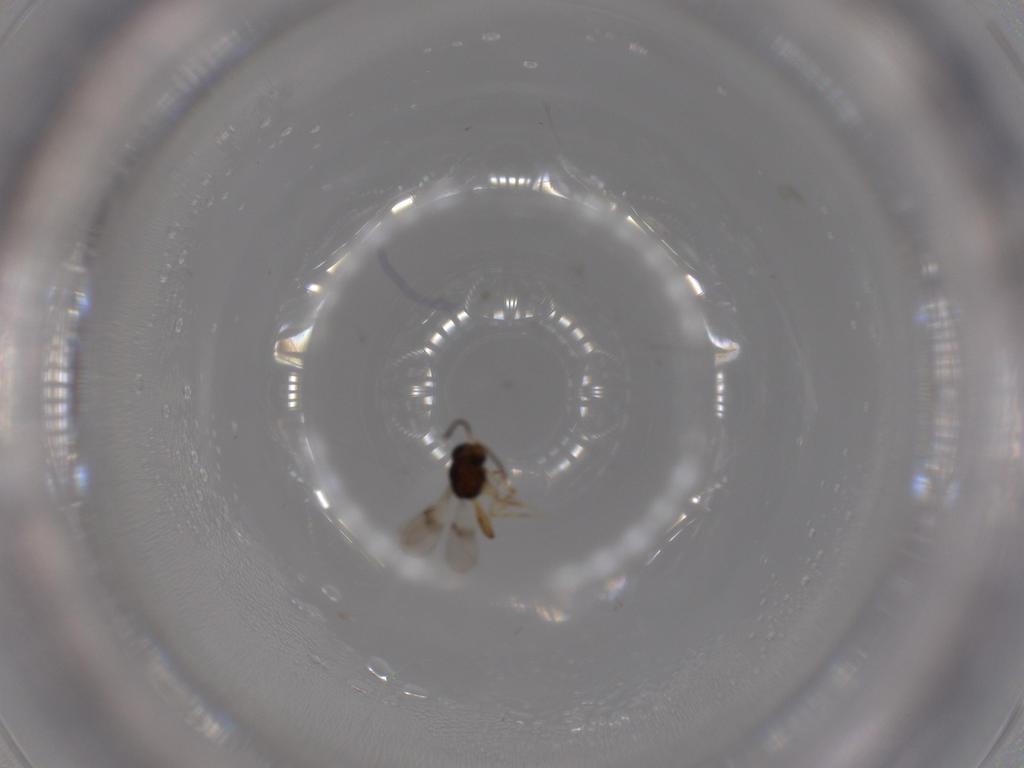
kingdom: Animalia
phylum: Arthropoda
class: Insecta
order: Hymenoptera
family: Scelionidae
